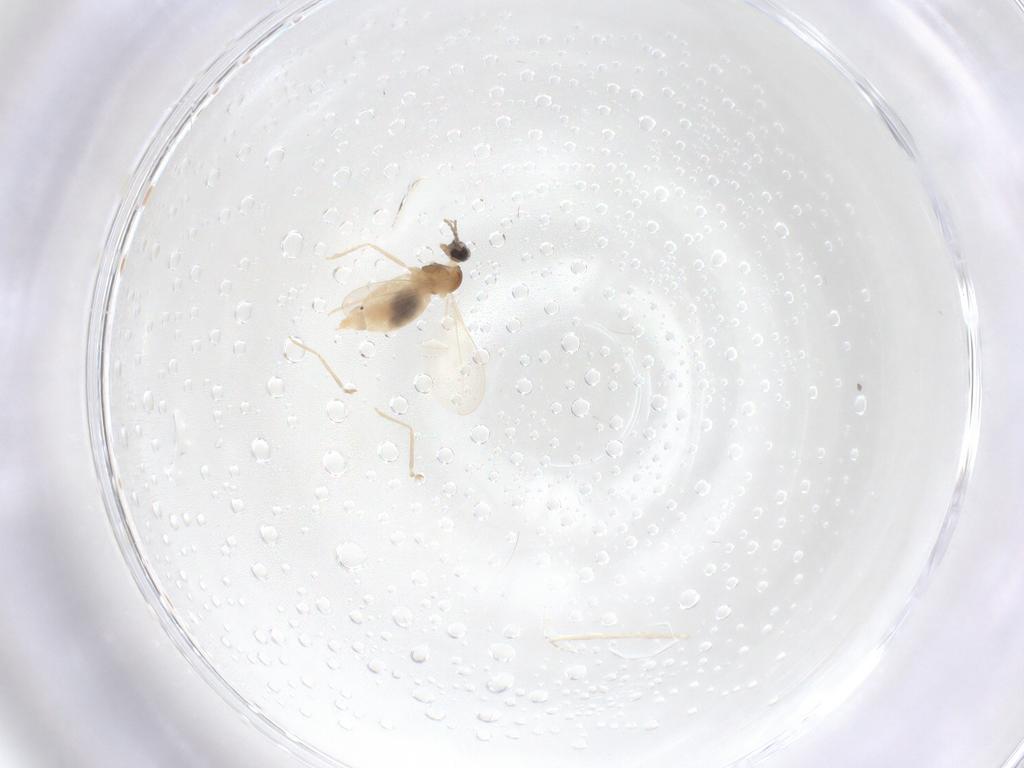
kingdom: Animalia
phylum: Arthropoda
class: Insecta
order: Diptera
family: Cecidomyiidae
